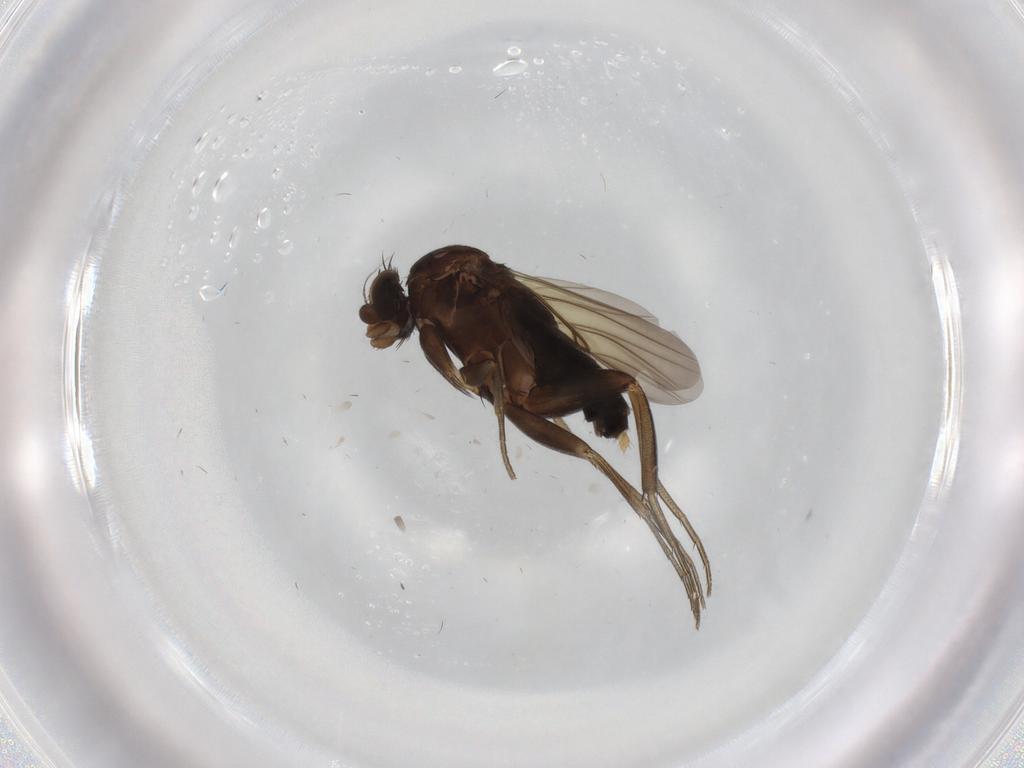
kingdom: Animalia
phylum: Arthropoda
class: Insecta
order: Diptera
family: Phoridae
